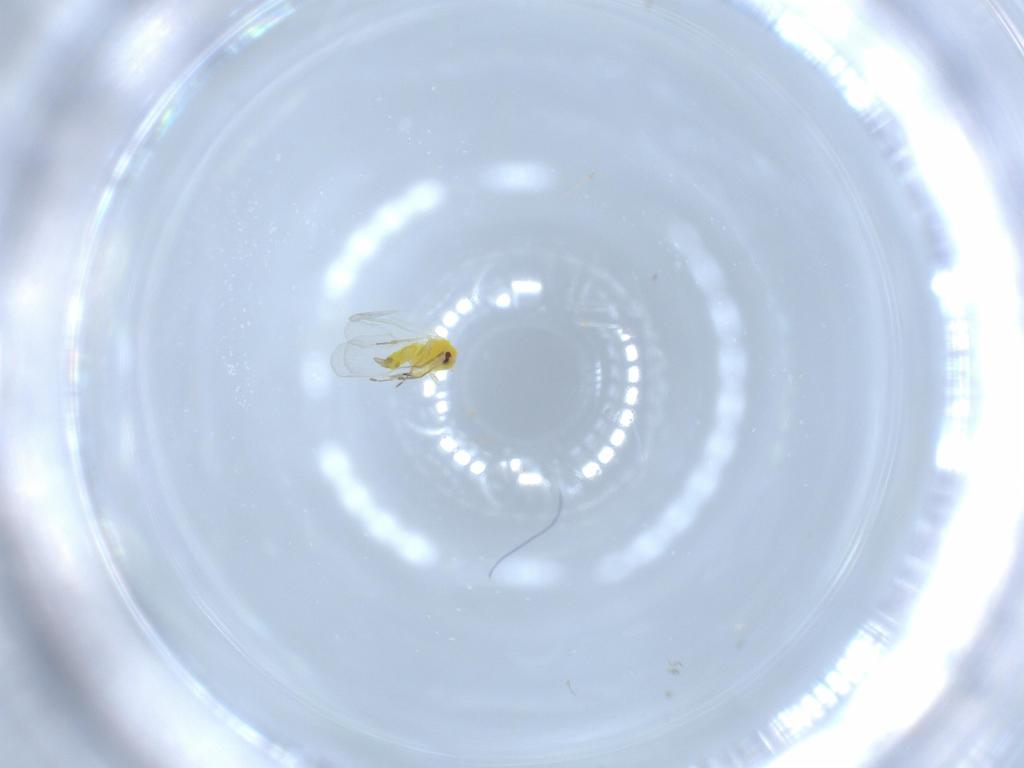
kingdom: Animalia
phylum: Arthropoda
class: Insecta
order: Hemiptera
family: Aleyrodidae
